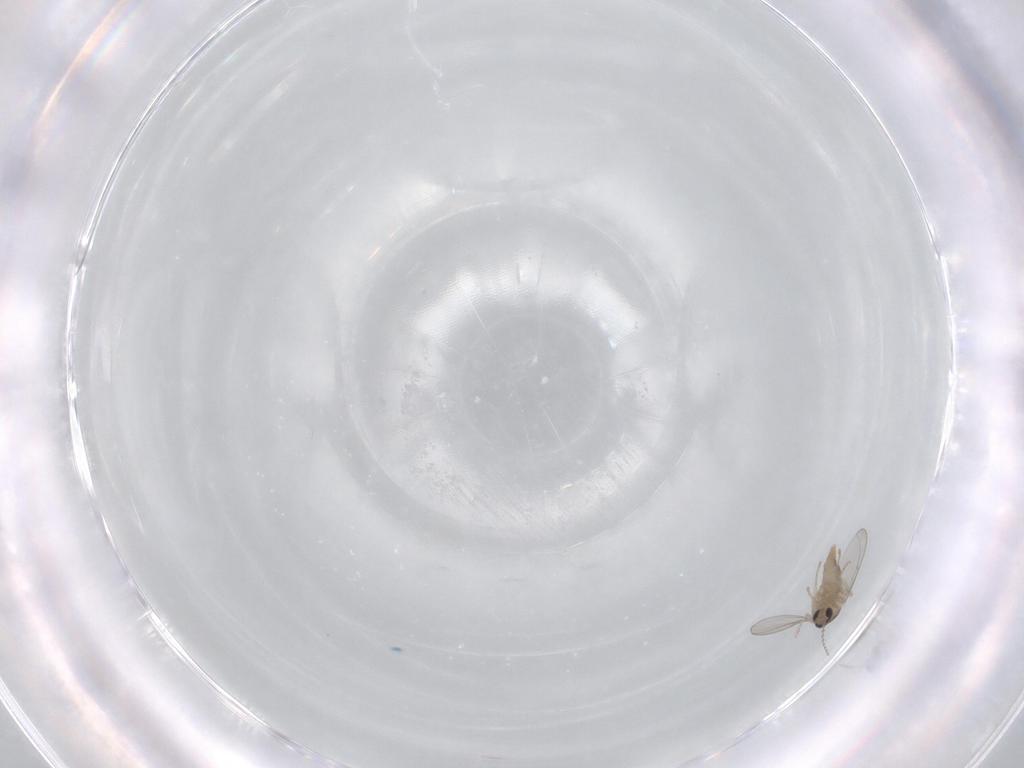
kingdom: Animalia
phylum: Arthropoda
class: Insecta
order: Diptera
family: Cecidomyiidae
